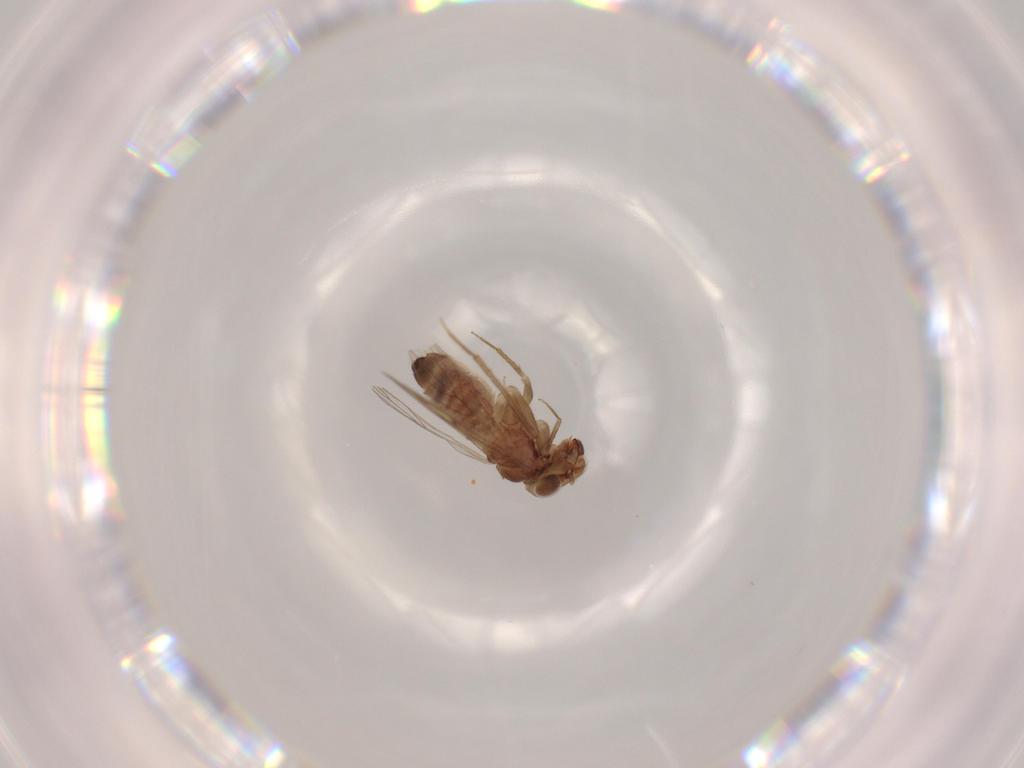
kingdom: Animalia
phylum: Arthropoda
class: Insecta
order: Psocodea
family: Lepidopsocidae
